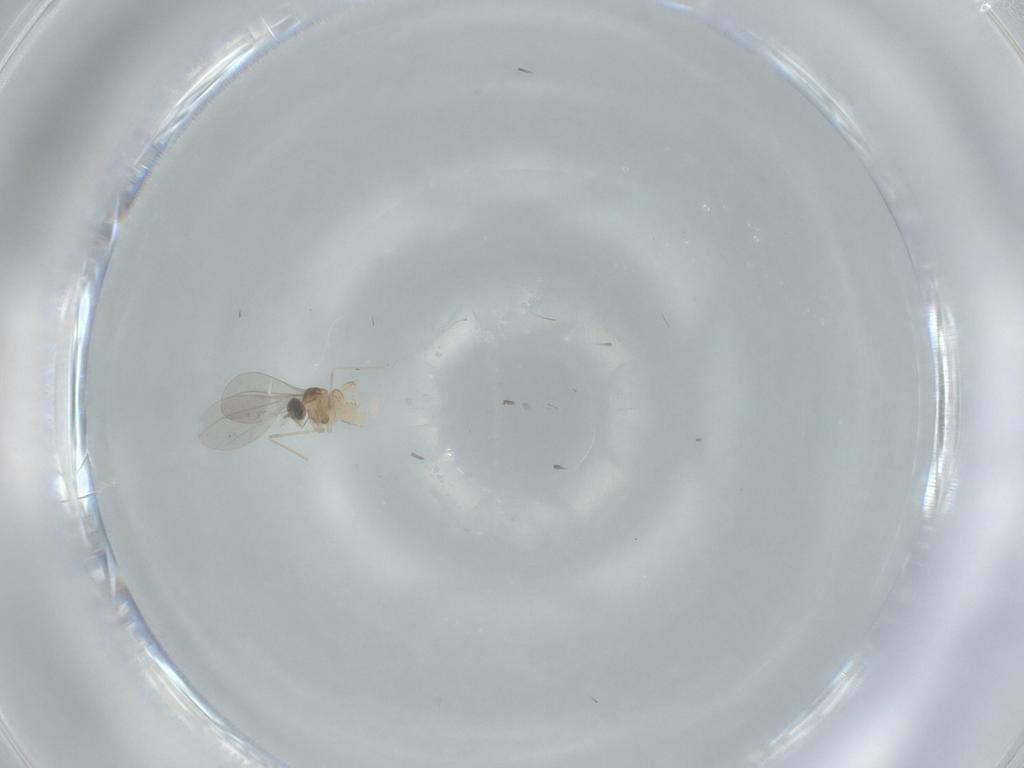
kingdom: Animalia
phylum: Arthropoda
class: Insecta
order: Diptera
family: Cecidomyiidae
